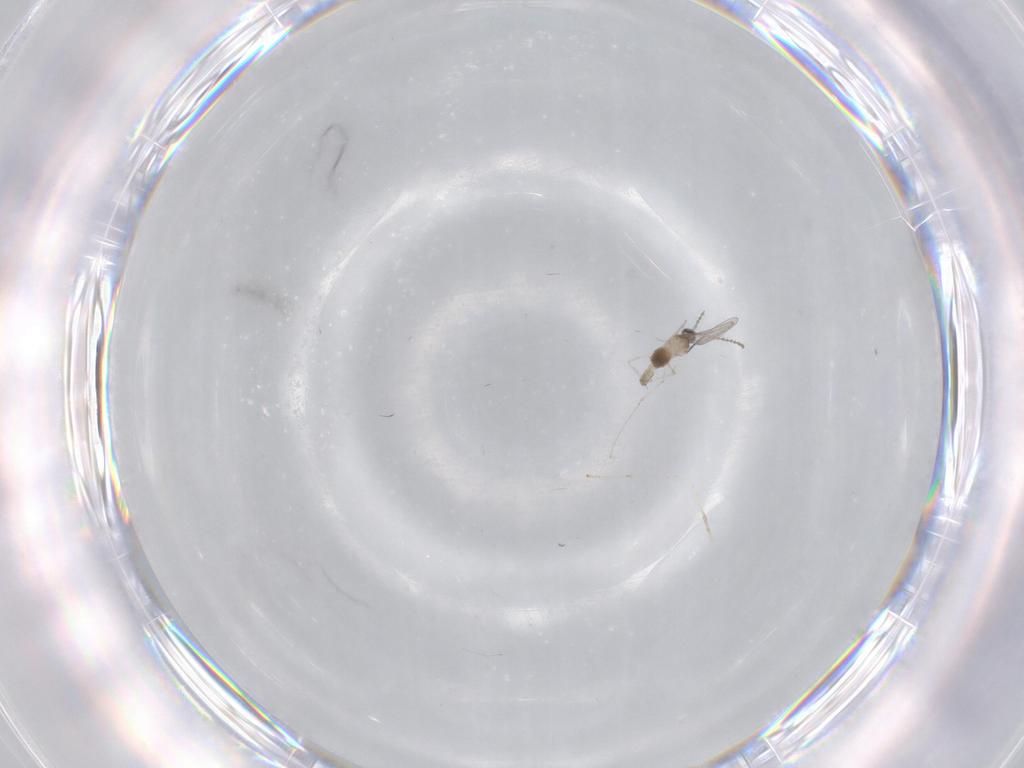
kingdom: Animalia
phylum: Arthropoda
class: Insecta
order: Diptera
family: Cecidomyiidae
